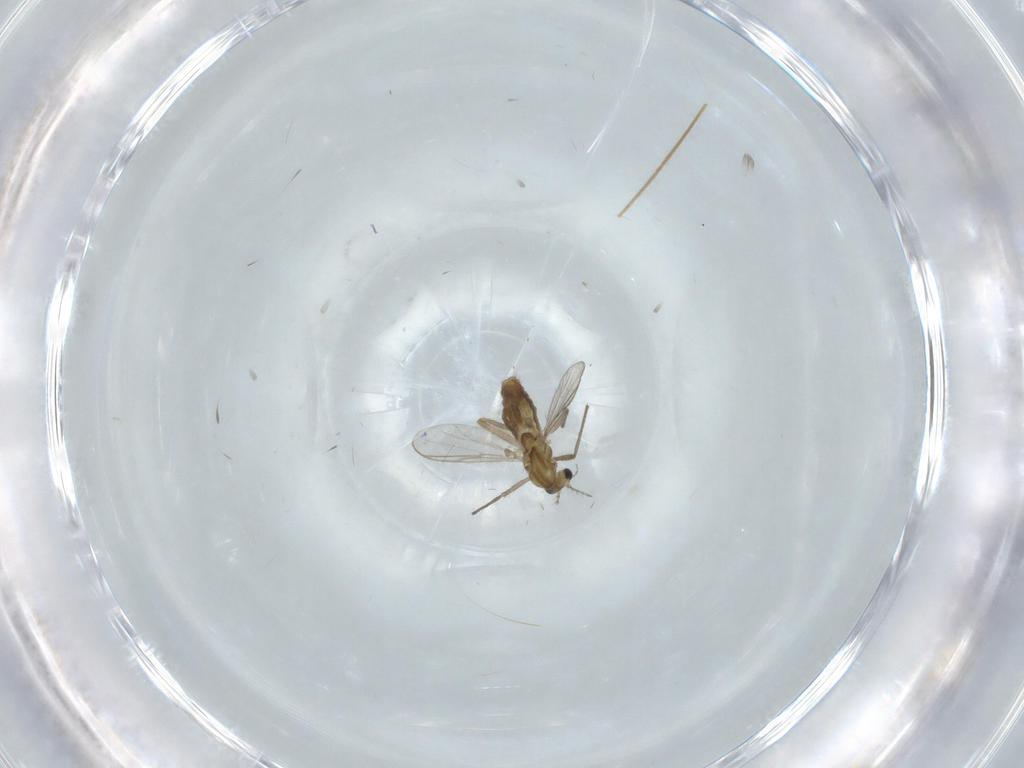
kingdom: Animalia
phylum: Arthropoda
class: Insecta
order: Diptera
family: Chironomidae
